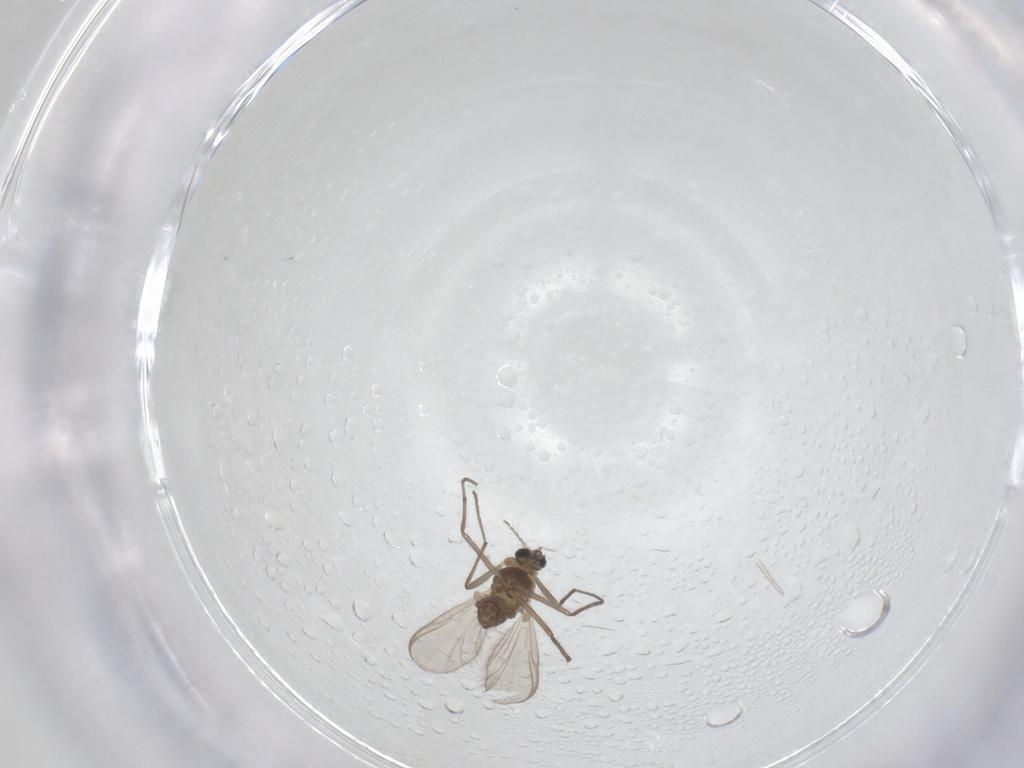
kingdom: Animalia
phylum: Arthropoda
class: Insecta
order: Diptera
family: Chironomidae
